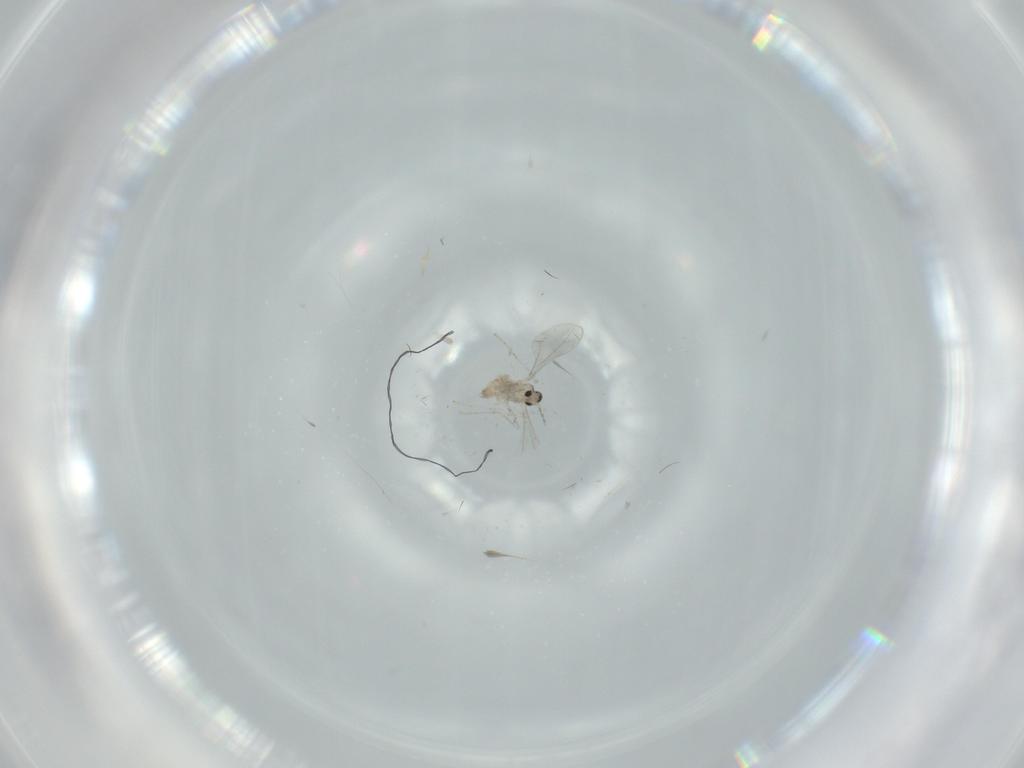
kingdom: Animalia
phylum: Arthropoda
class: Insecta
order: Diptera
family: Cecidomyiidae
